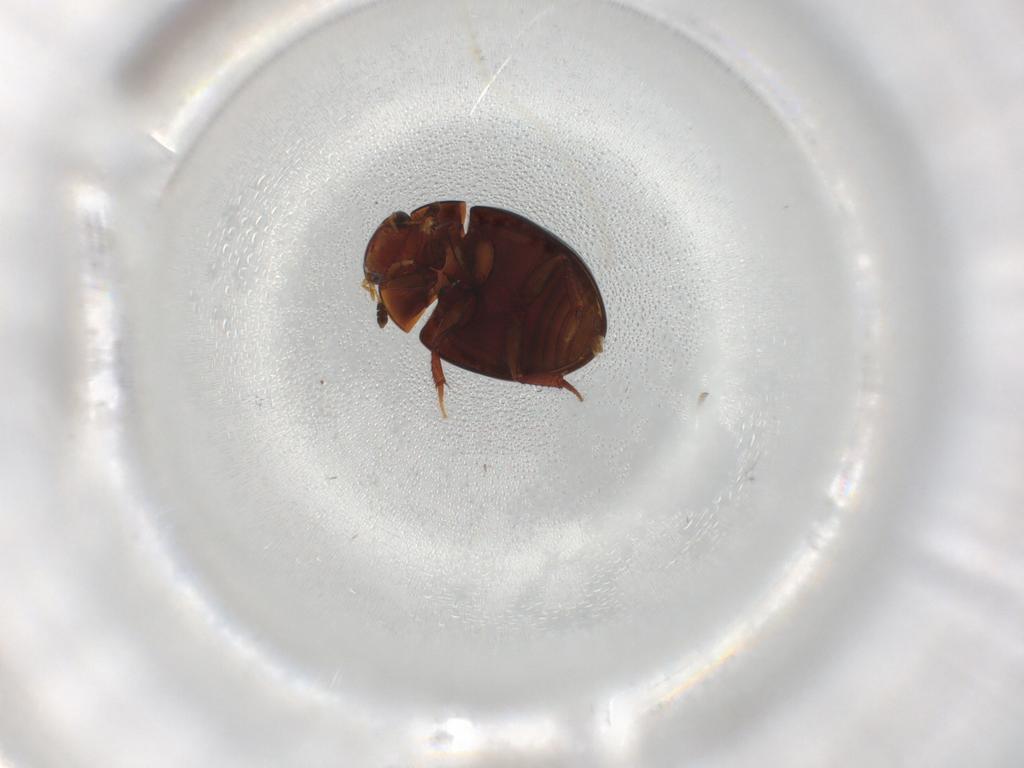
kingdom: Animalia
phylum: Arthropoda
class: Insecta
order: Coleoptera
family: Hydrophilidae
